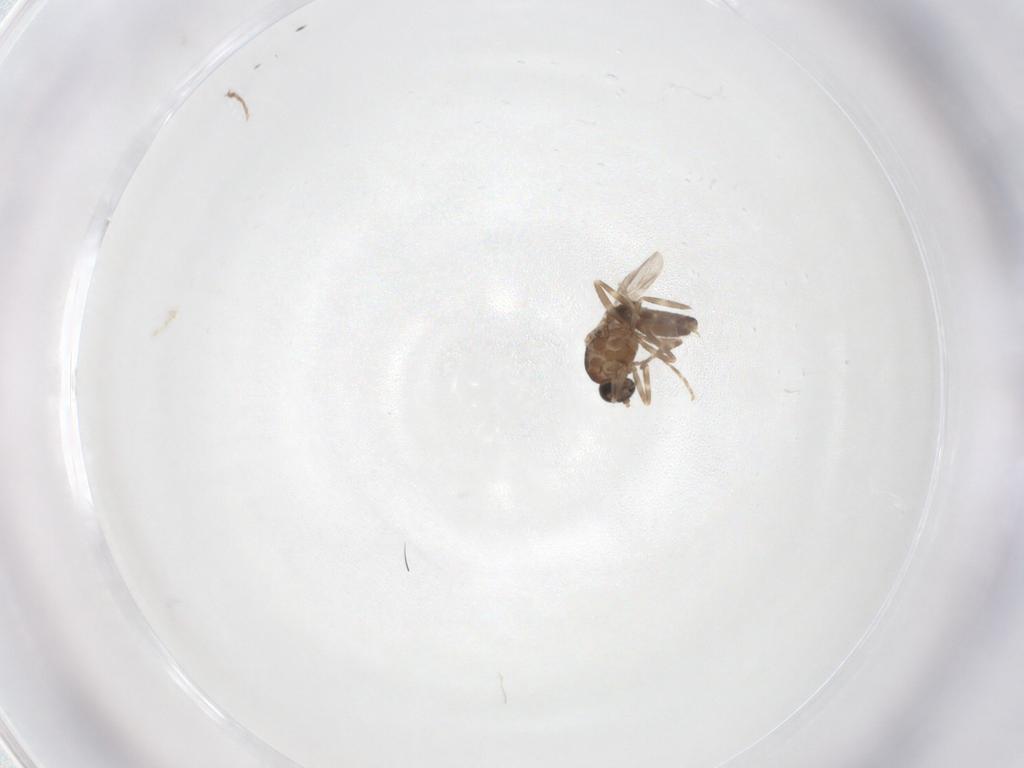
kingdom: Animalia
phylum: Arthropoda
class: Insecta
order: Diptera
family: Ceratopogonidae
